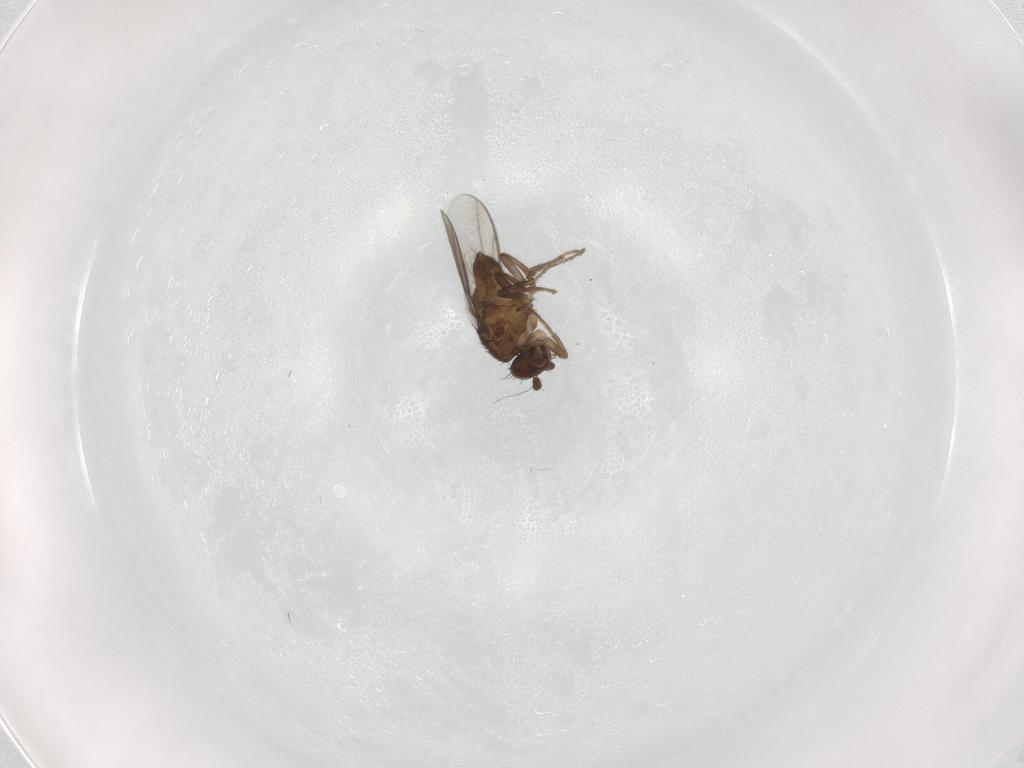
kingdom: Animalia
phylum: Arthropoda
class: Insecta
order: Diptera
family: Sphaeroceridae
